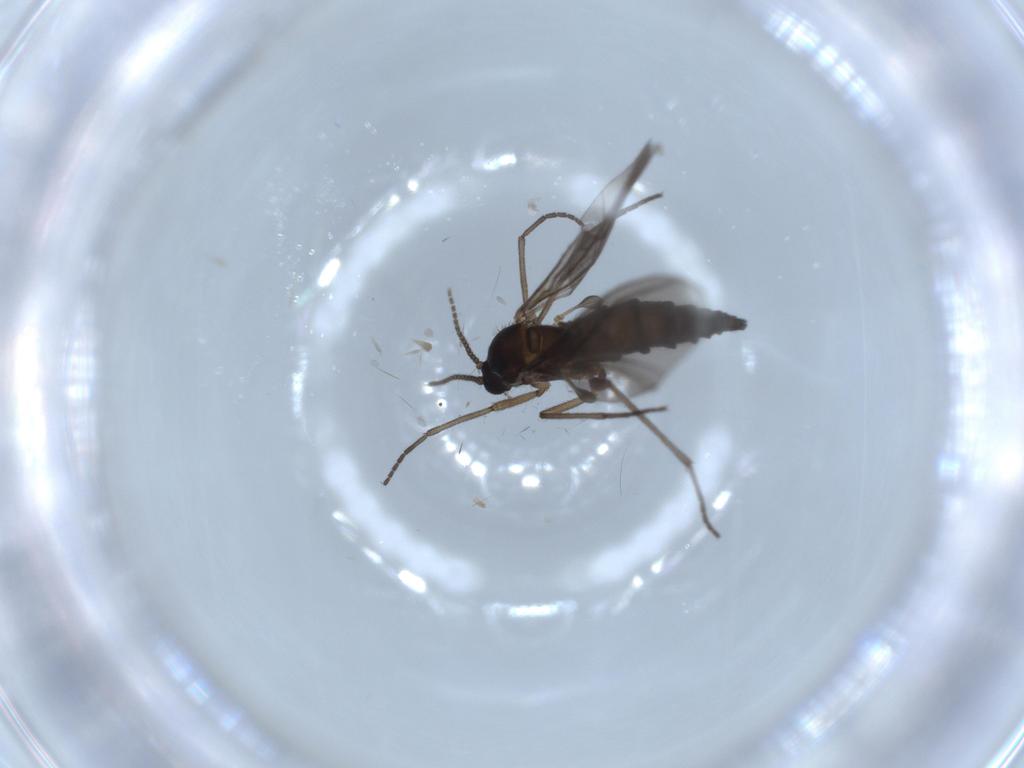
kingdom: Animalia
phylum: Arthropoda
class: Insecta
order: Diptera
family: Sciaridae
